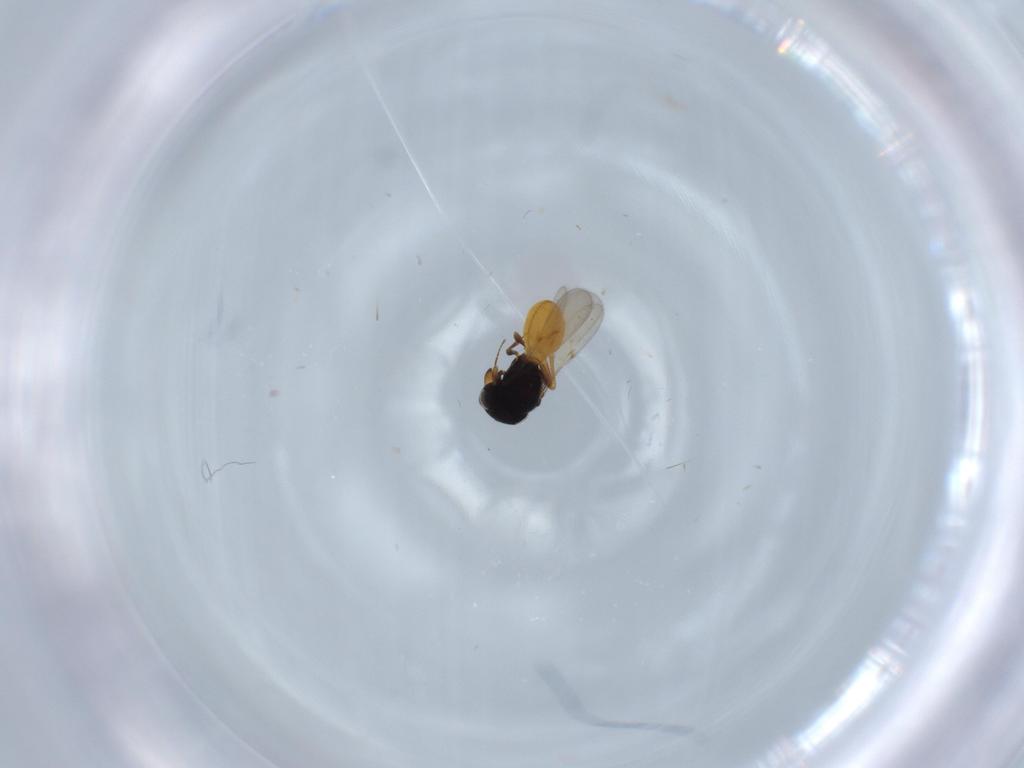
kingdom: Animalia
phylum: Arthropoda
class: Insecta
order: Hymenoptera
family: Scelionidae
